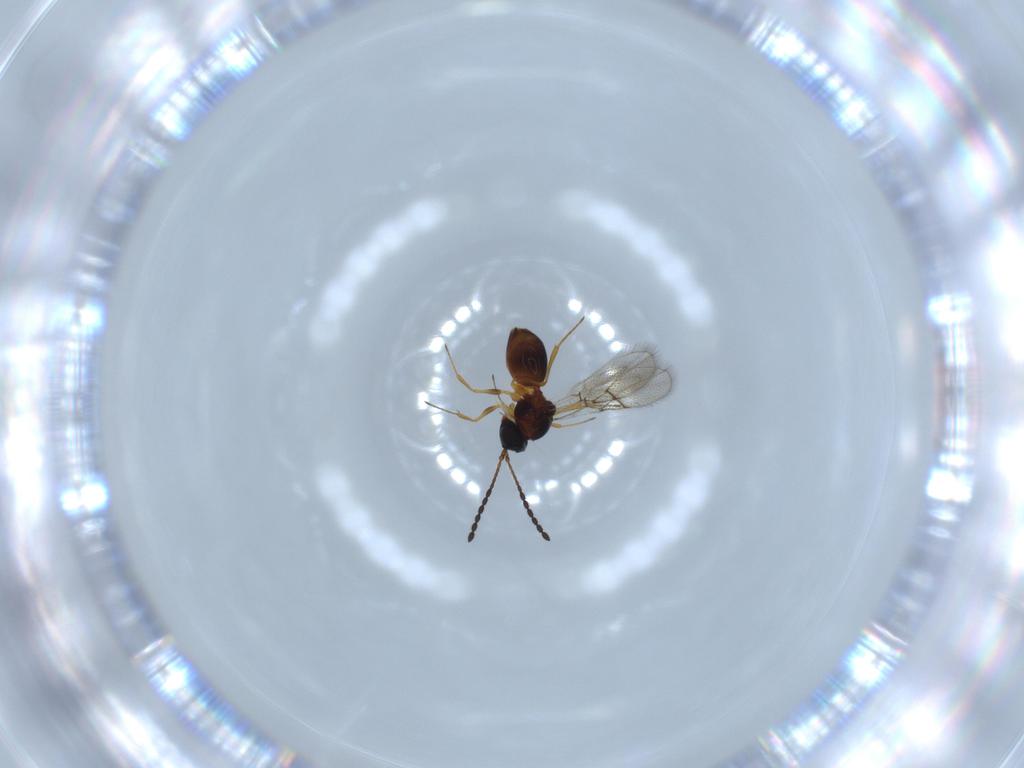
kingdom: Animalia
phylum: Arthropoda
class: Insecta
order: Hymenoptera
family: Figitidae
